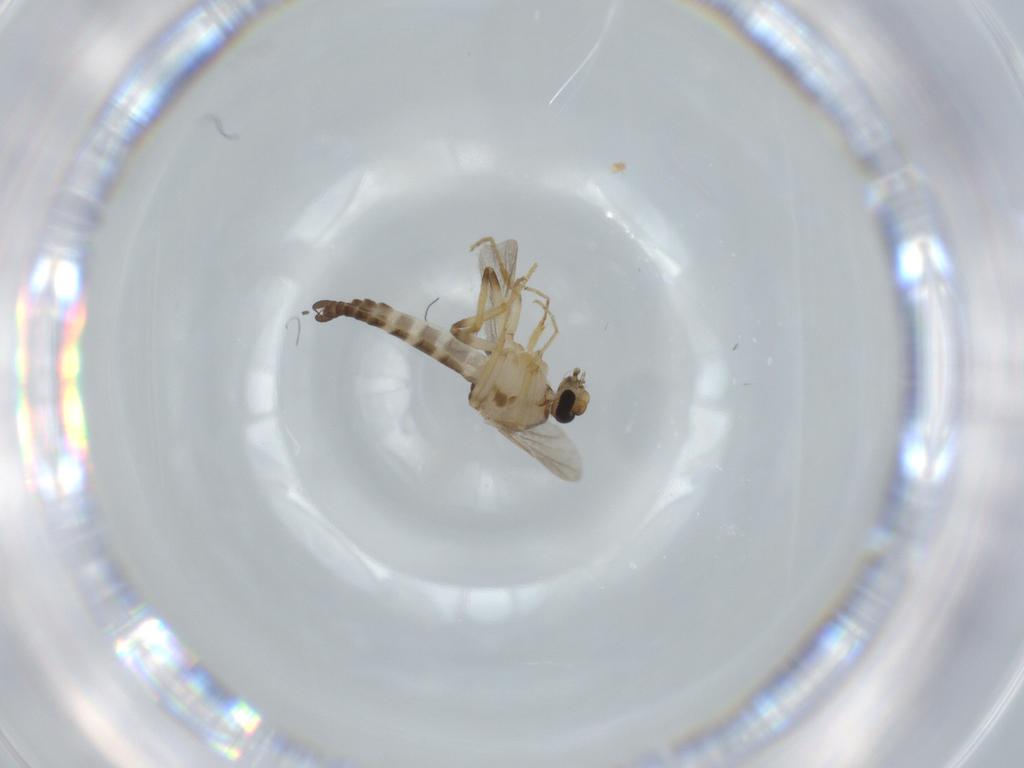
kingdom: Animalia
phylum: Arthropoda
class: Insecta
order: Diptera
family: Ceratopogonidae
